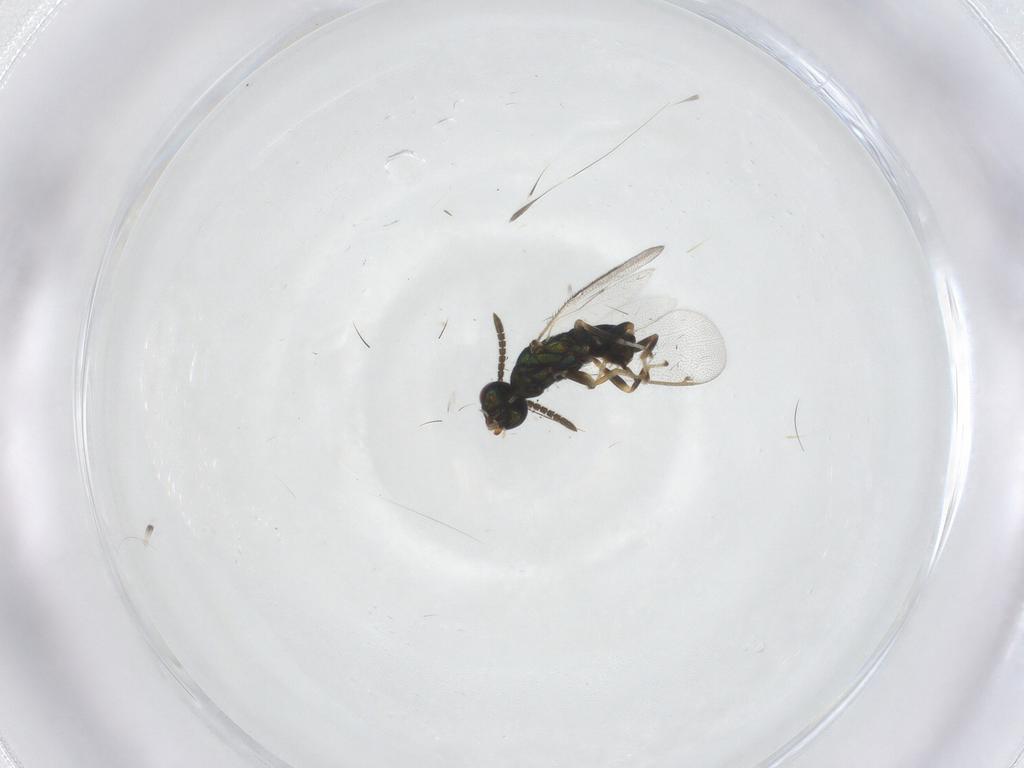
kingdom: Animalia
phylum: Arthropoda
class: Insecta
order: Hymenoptera
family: Torymidae
